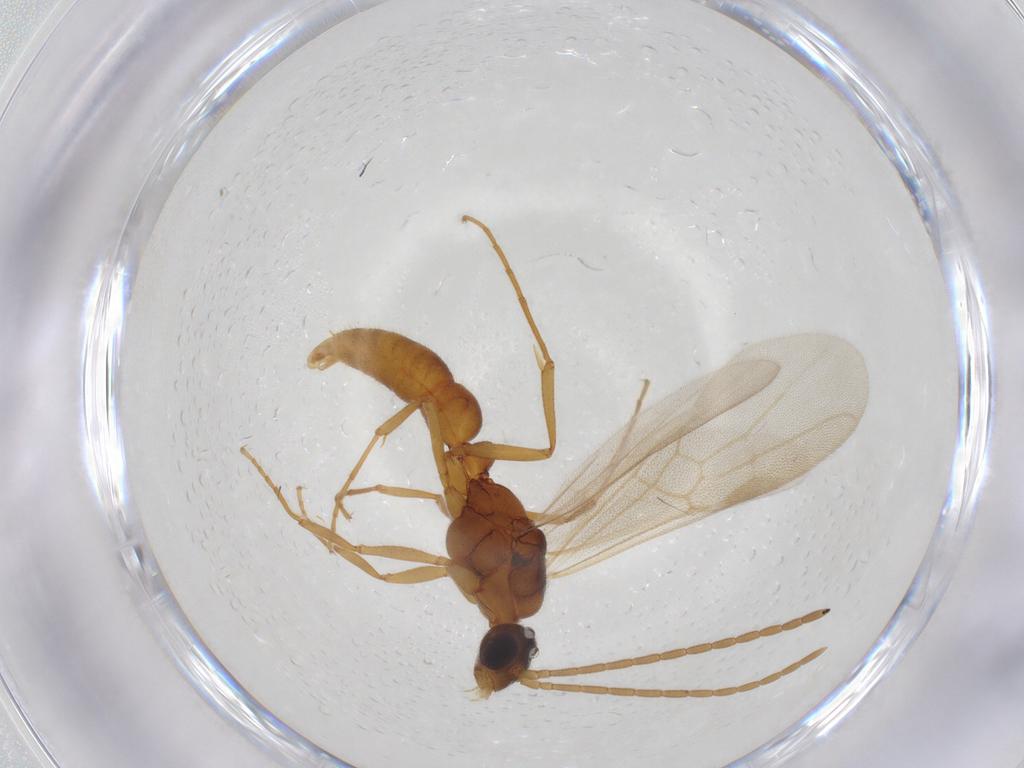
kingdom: Animalia
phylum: Arthropoda
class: Insecta
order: Hymenoptera
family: Formicidae
